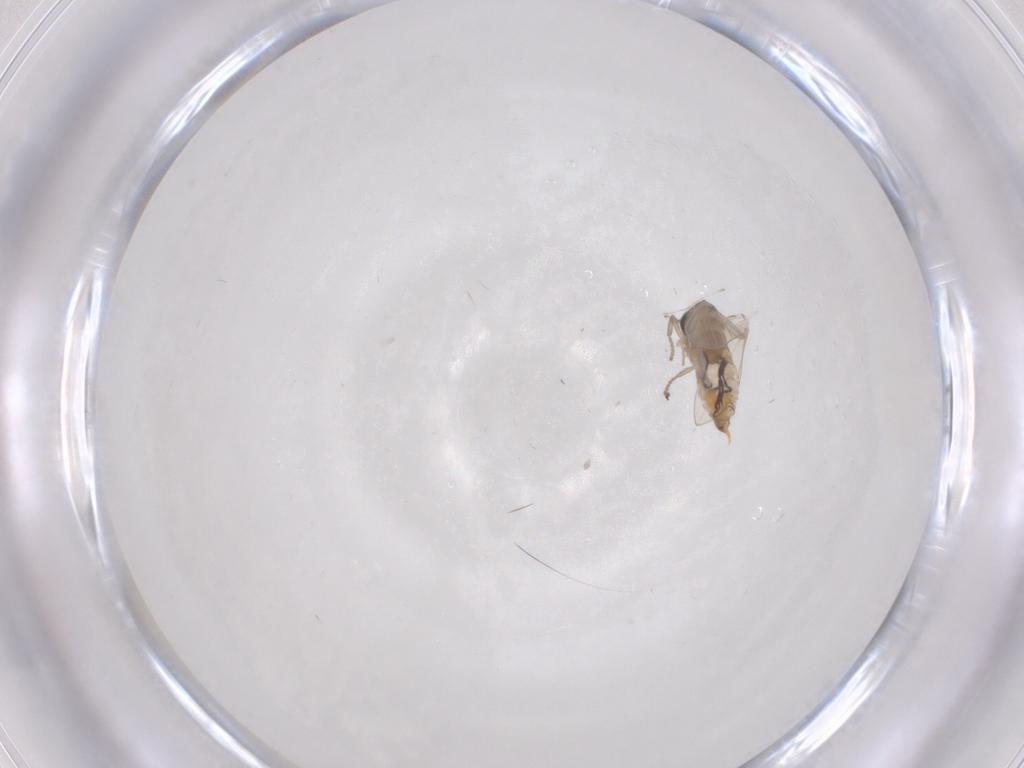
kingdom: Animalia
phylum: Arthropoda
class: Insecta
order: Diptera
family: Psychodidae
